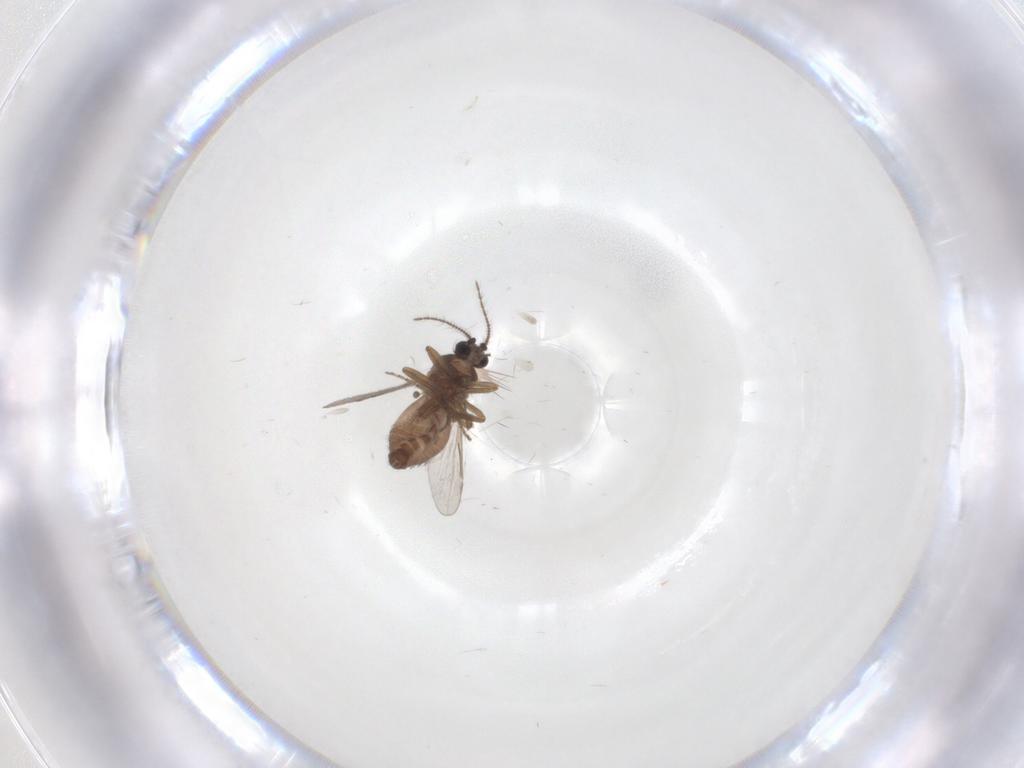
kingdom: Animalia
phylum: Arthropoda
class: Insecta
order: Diptera
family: Ceratopogonidae
